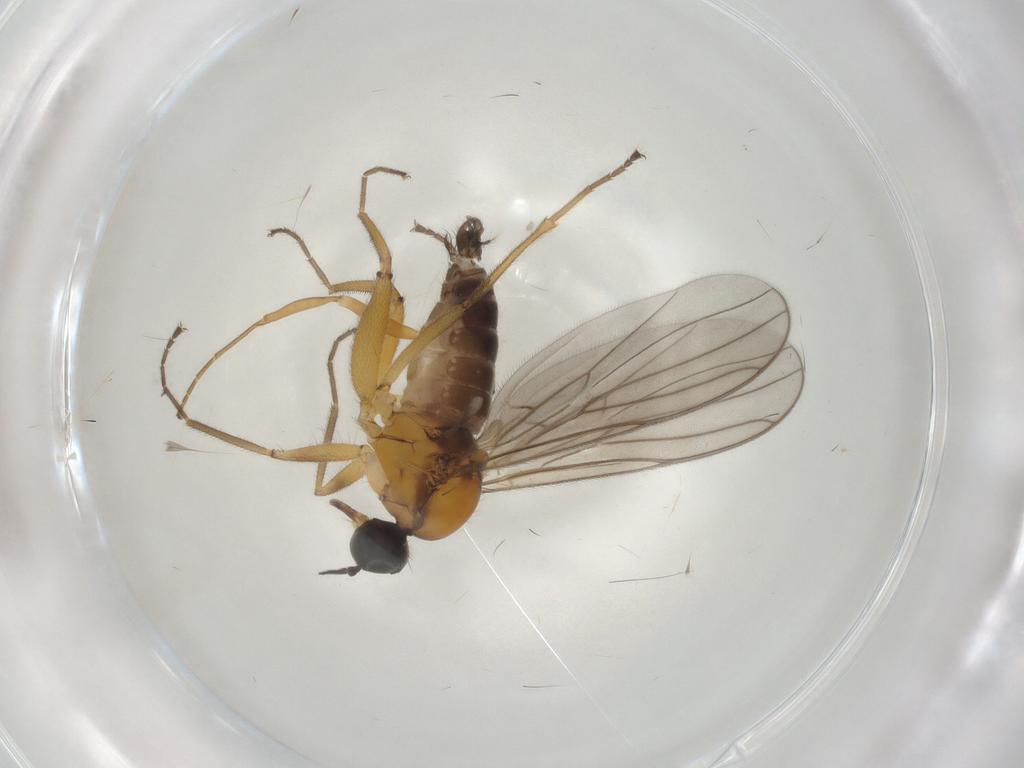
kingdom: Animalia
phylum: Arthropoda
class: Insecta
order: Diptera
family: Hybotidae
